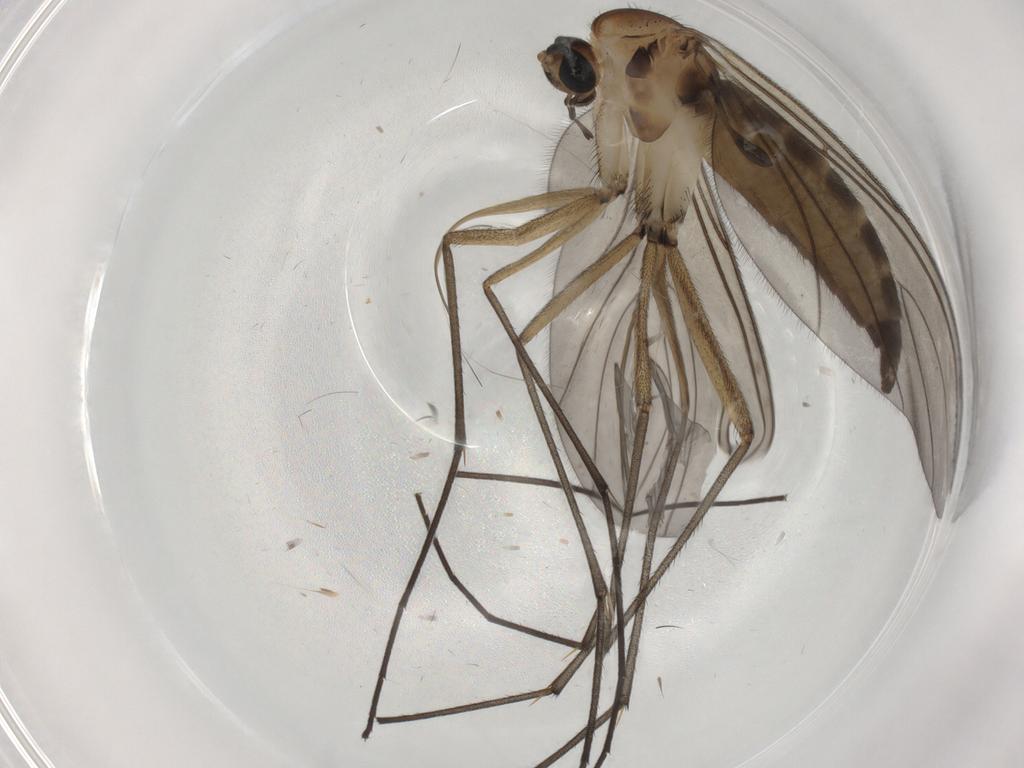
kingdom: Animalia
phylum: Arthropoda
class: Insecta
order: Diptera
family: Sciaridae
